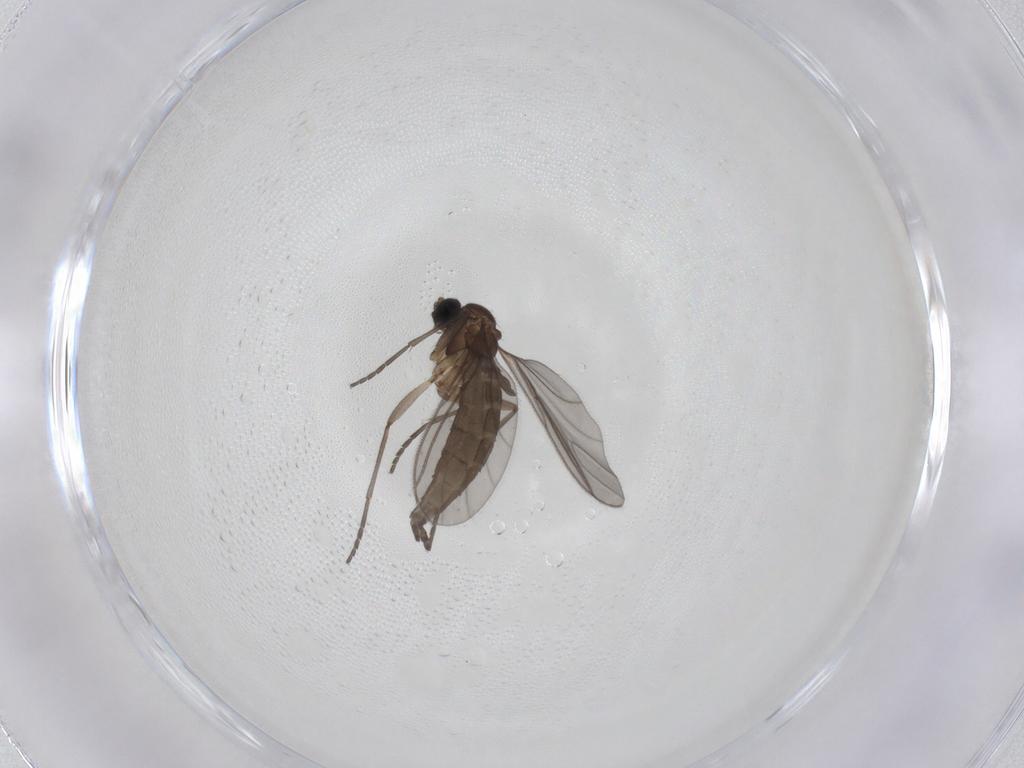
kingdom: Animalia
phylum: Arthropoda
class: Insecta
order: Diptera
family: Sciaridae
